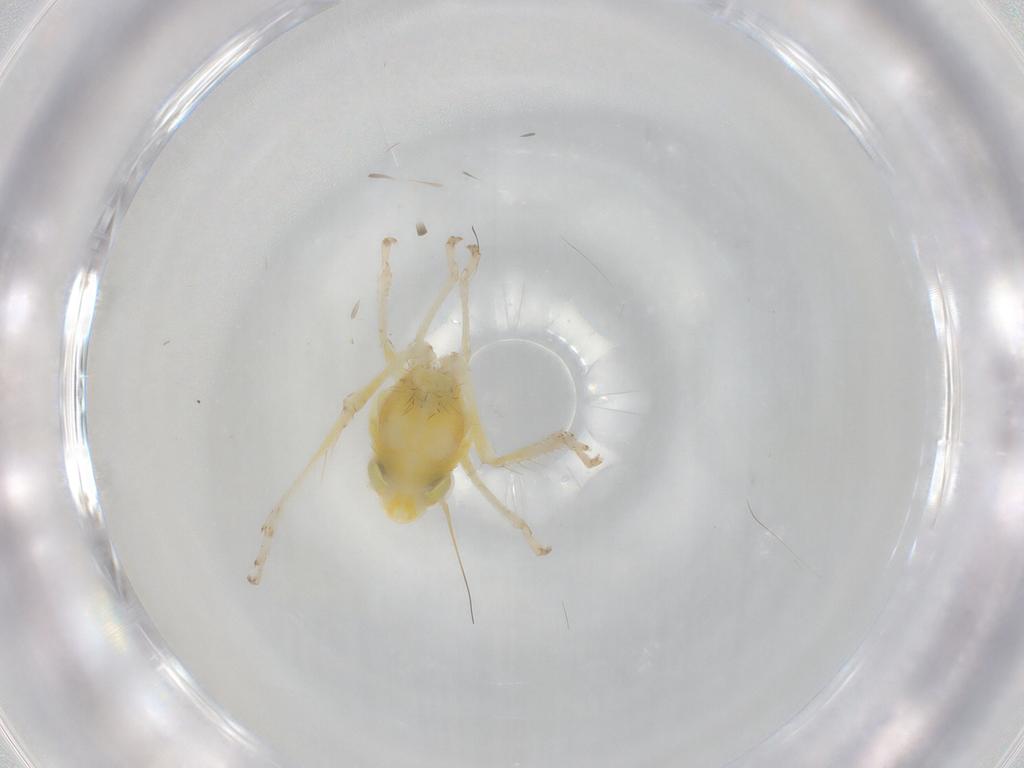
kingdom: Animalia
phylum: Arthropoda
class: Insecta
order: Hemiptera
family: Cicadellidae
